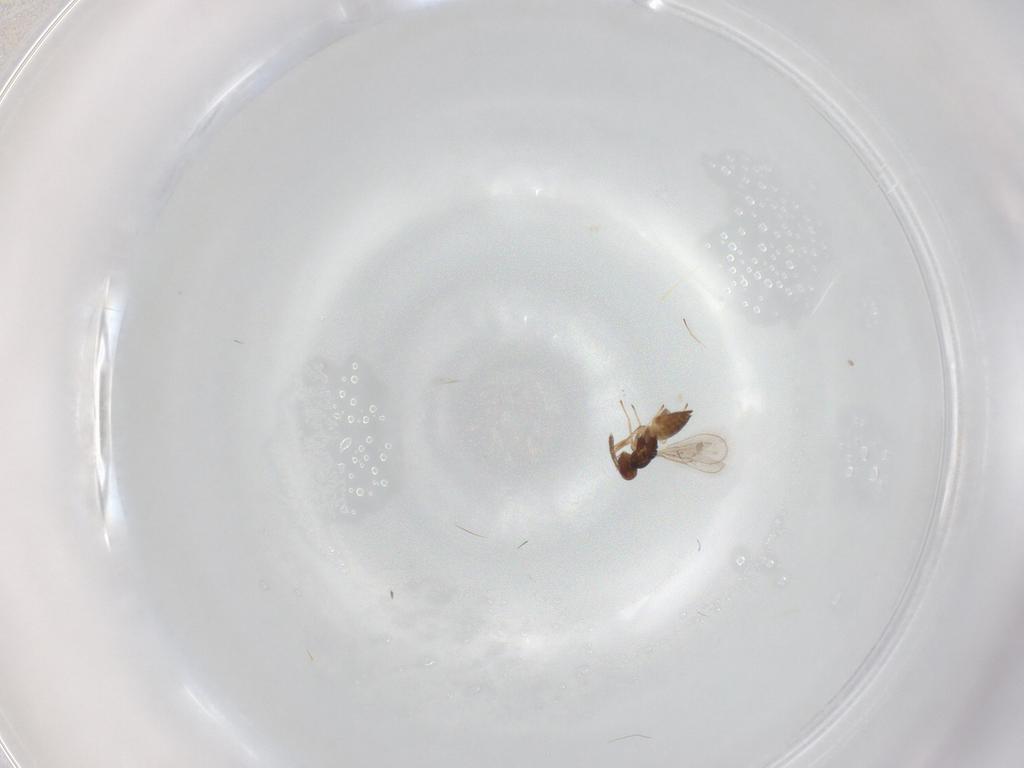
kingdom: Animalia
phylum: Arthropoda
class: Insecta
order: Hymenoptera
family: Eulophidae
